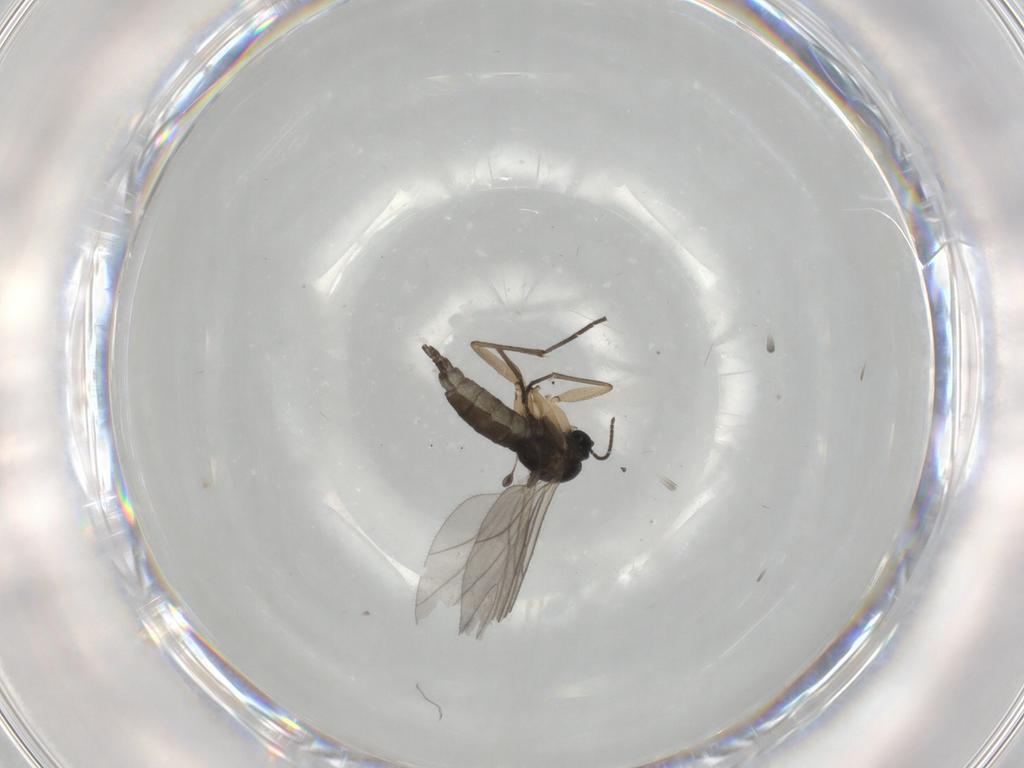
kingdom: Animalia
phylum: Arthropoda
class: Insecta
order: Diptera
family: Sciaridae
